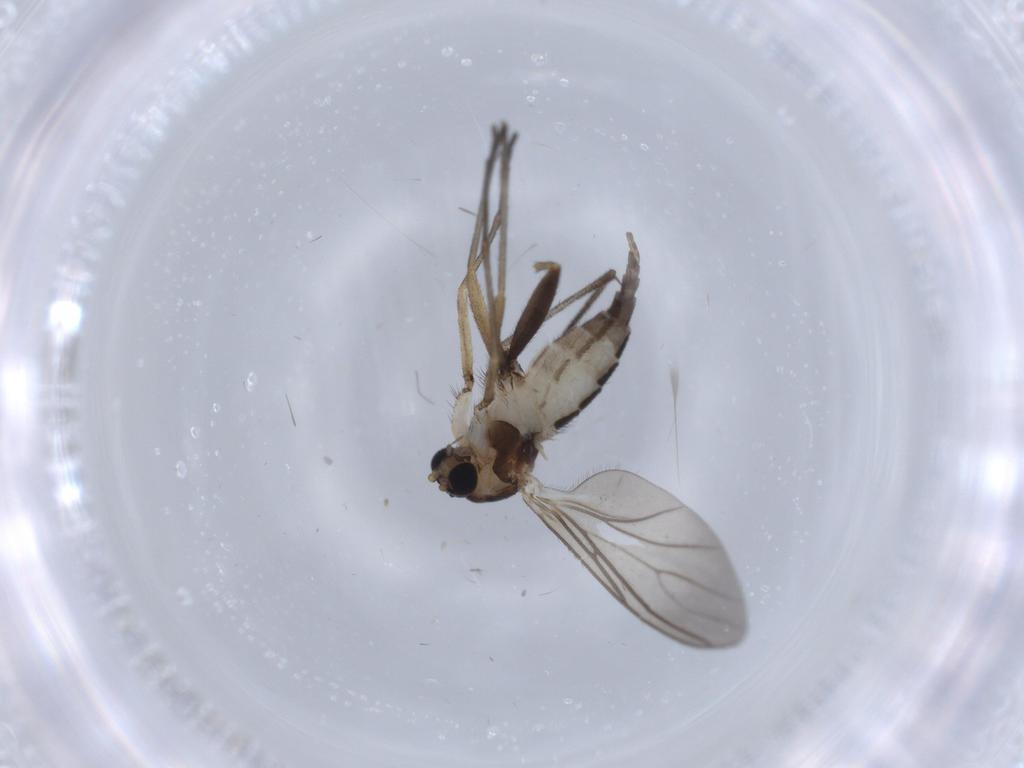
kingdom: Animalia
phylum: Arthropoda
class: Insecta
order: Diptera
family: Sciaridae
